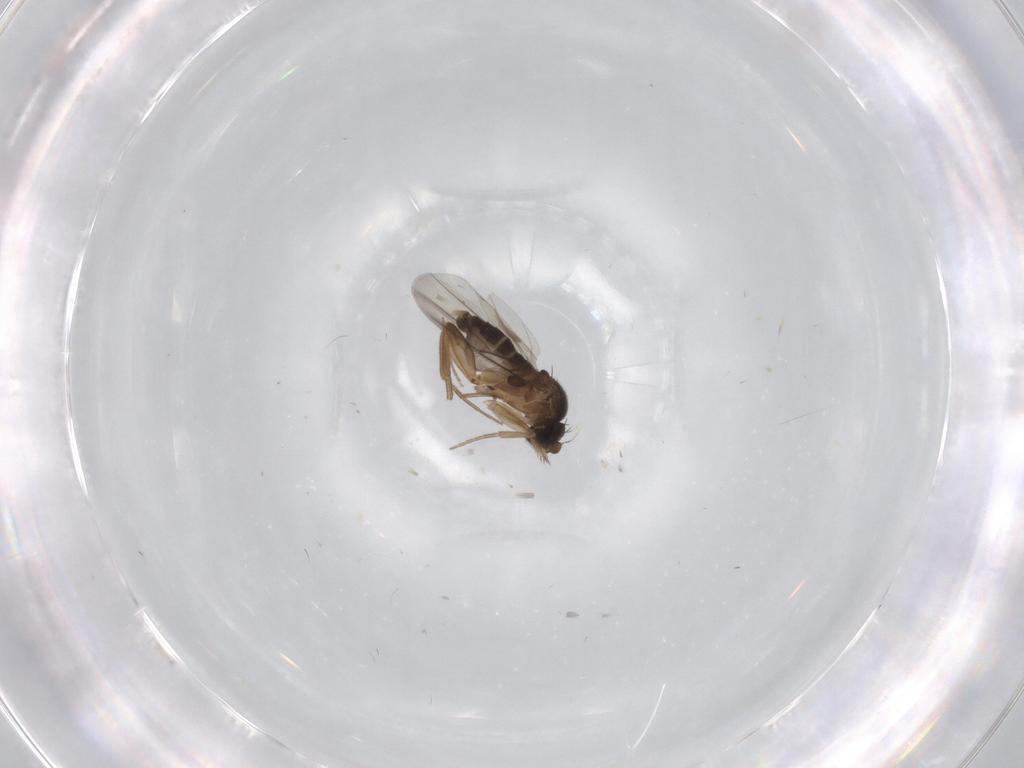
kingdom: Animalia
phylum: Arthropoda
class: Insecta
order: Diptera
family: Phoridae
